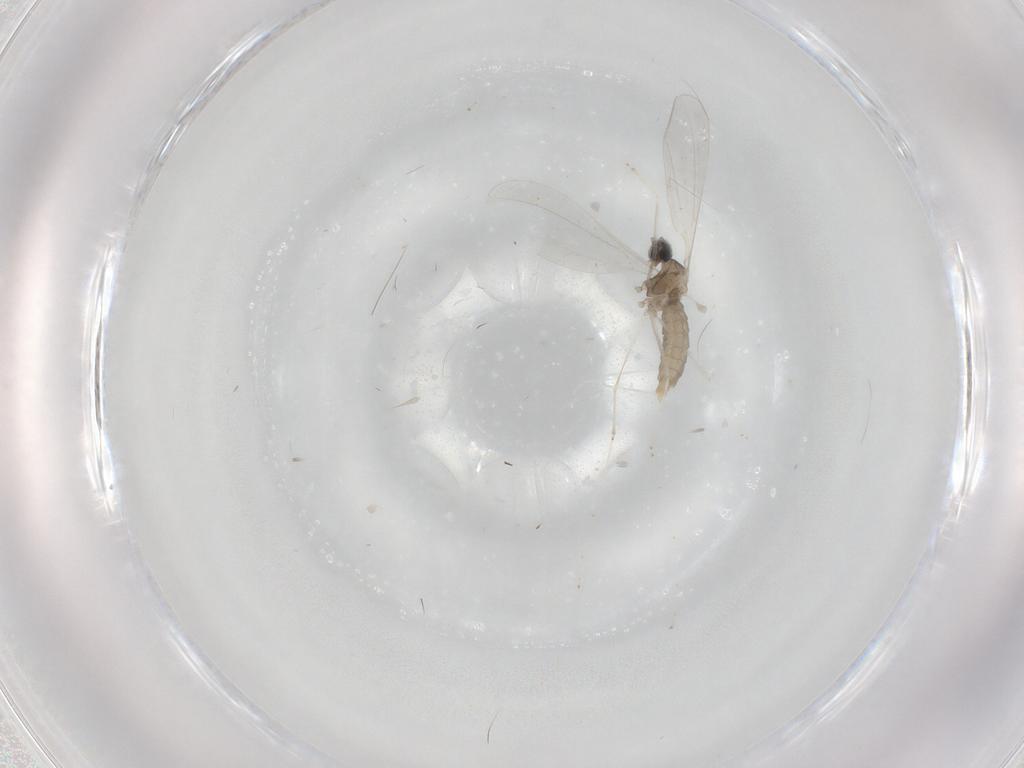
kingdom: Animalia
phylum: Arthropoda
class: Insecta
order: Diptera
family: Cecidomyiidae
